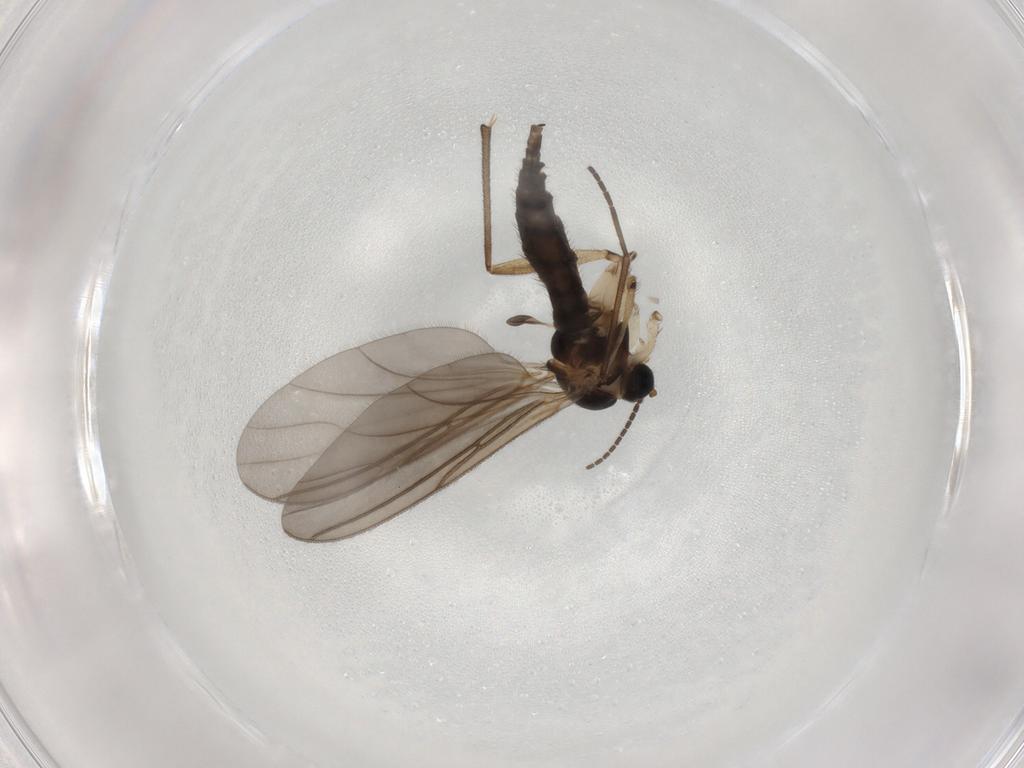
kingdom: Animalia
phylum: Arthropoda
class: Insecta
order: Diptera
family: Sciaridae
